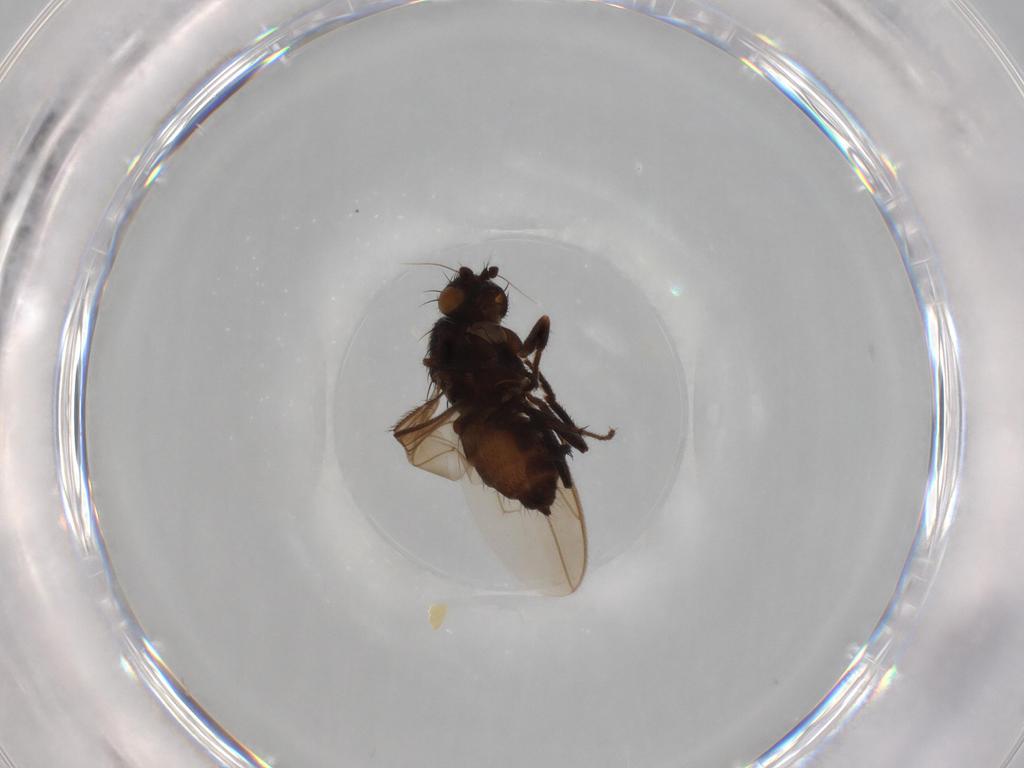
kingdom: Animalia
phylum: Arthropoda
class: Insecta
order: Diptera
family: Sphaeroceridae
